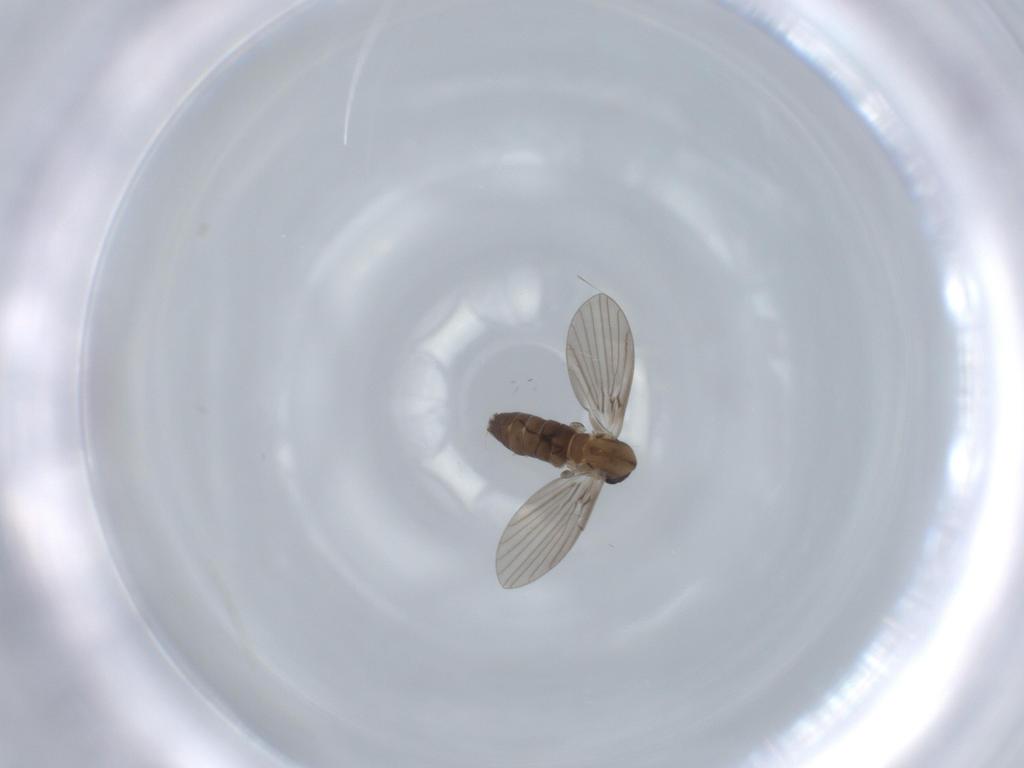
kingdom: Animalia
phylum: Arthropoda
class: Insecta
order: Diptera
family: Psychodidae
